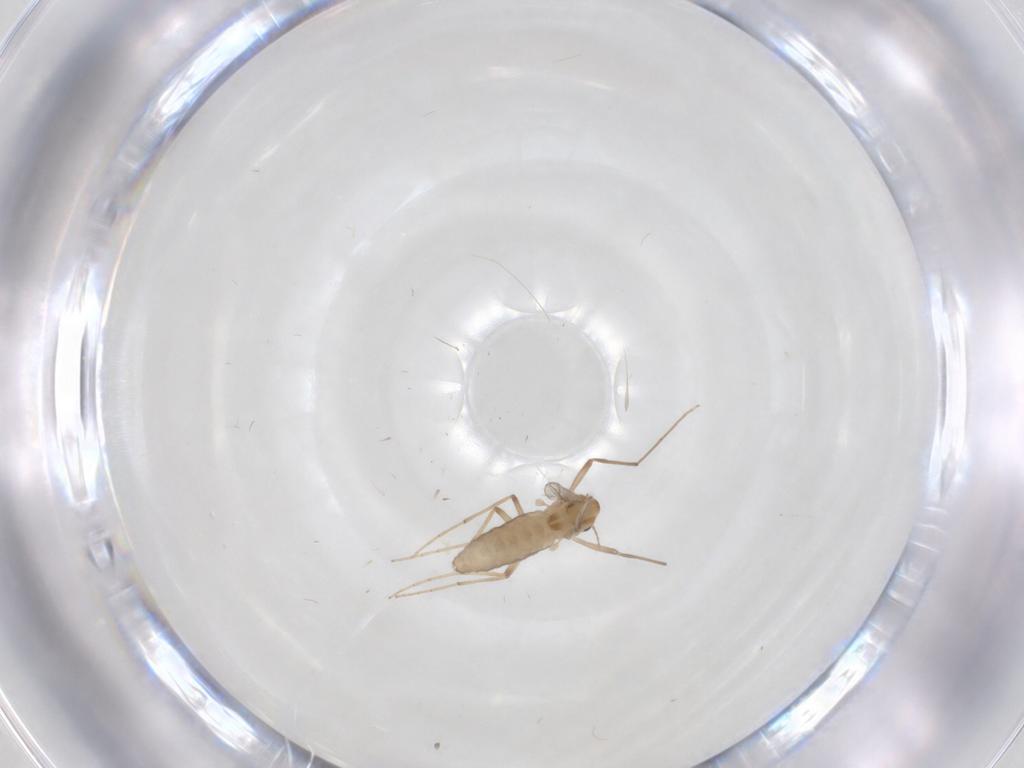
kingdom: Animalia
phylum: Arthropoda
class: Insecta
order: Diptera
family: Chironomidae
